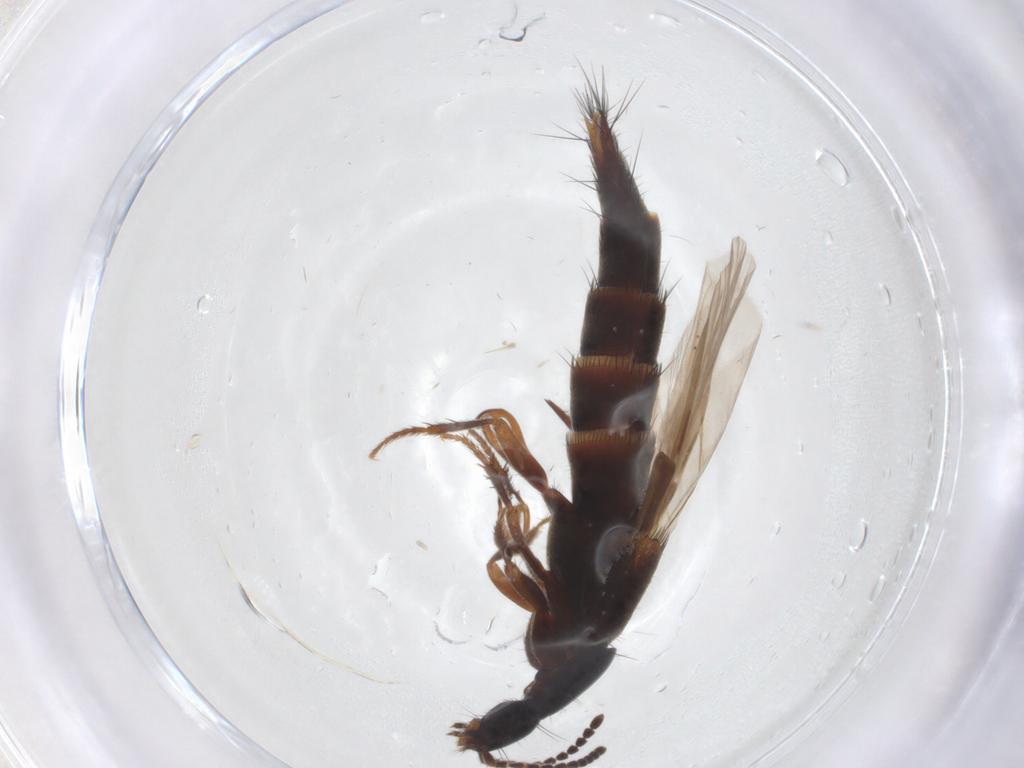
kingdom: Animalia
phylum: Arthropoda
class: Insecta
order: Coleoptera
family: Staphylinidae
